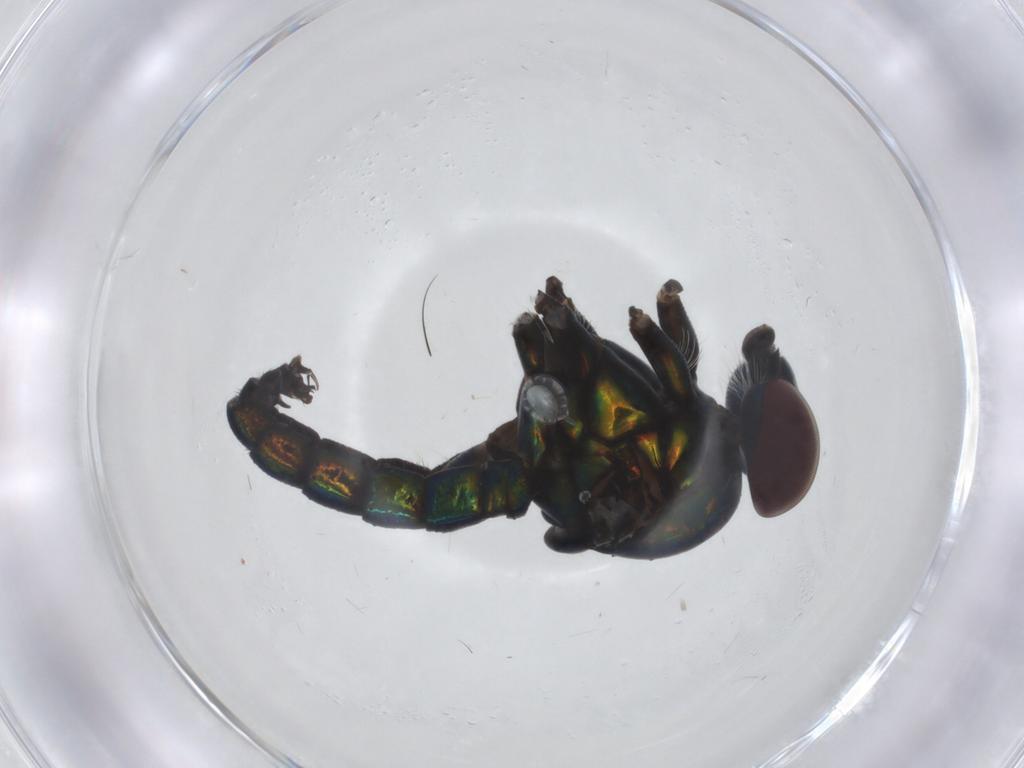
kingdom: Animalia
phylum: Arthropoda
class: Insecta
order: Diptera
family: Dolichopodidae
